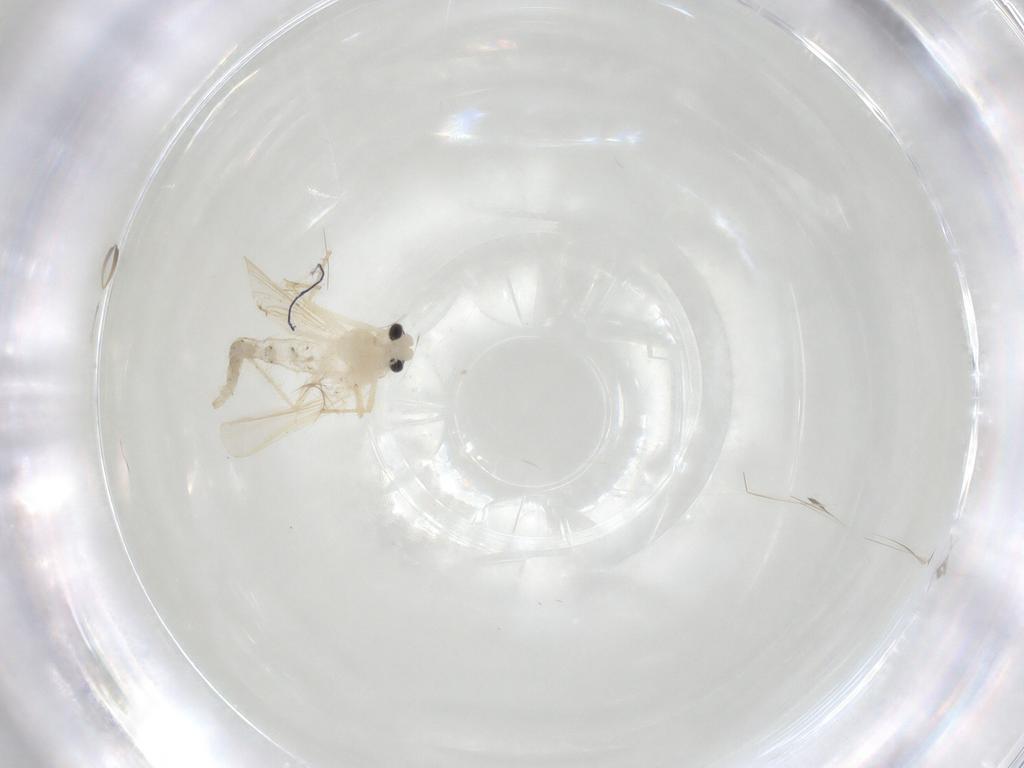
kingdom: Animalia
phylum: Arthropoda
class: Insecta
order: Diptera
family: Chironomidae
